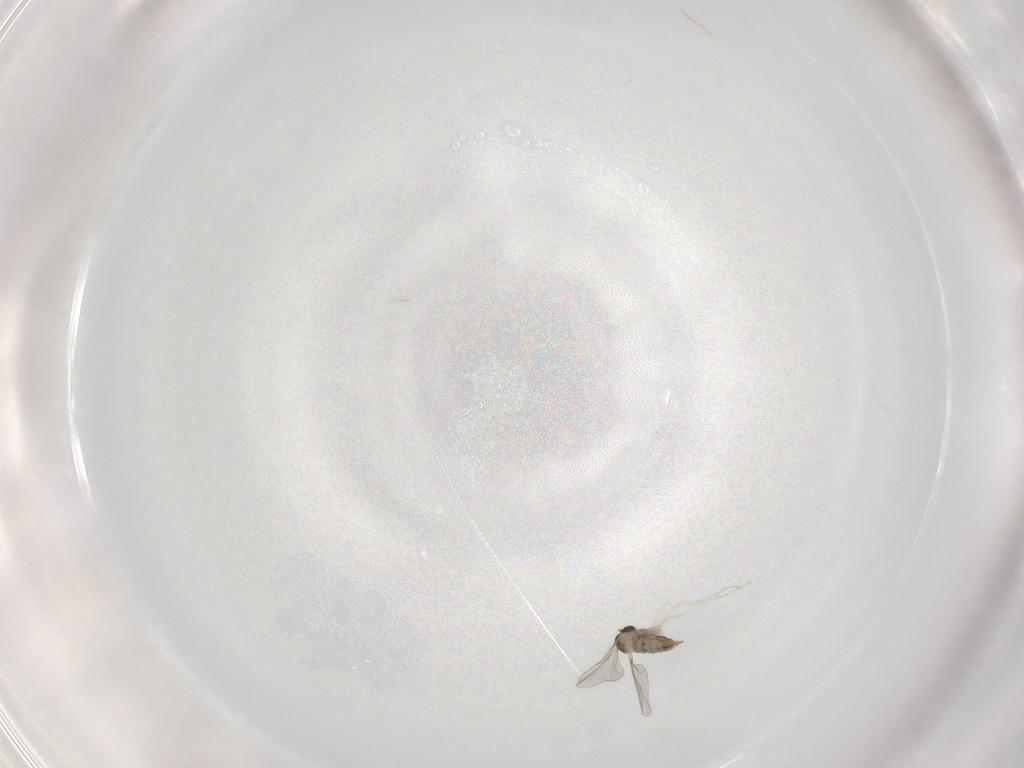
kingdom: Animalia
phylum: Arthropoda
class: Insecta
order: Diptera
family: Cecidomyiidae
